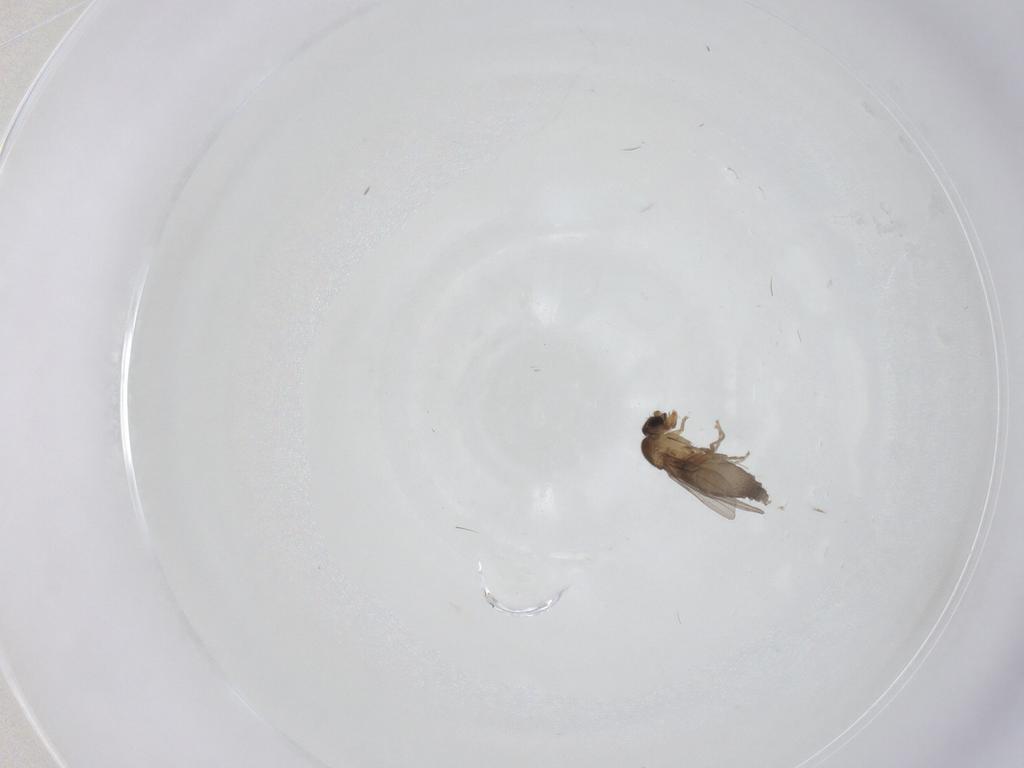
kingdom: Animalia
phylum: Arthropoda
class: Insecta
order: Diptera
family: Phoridae
